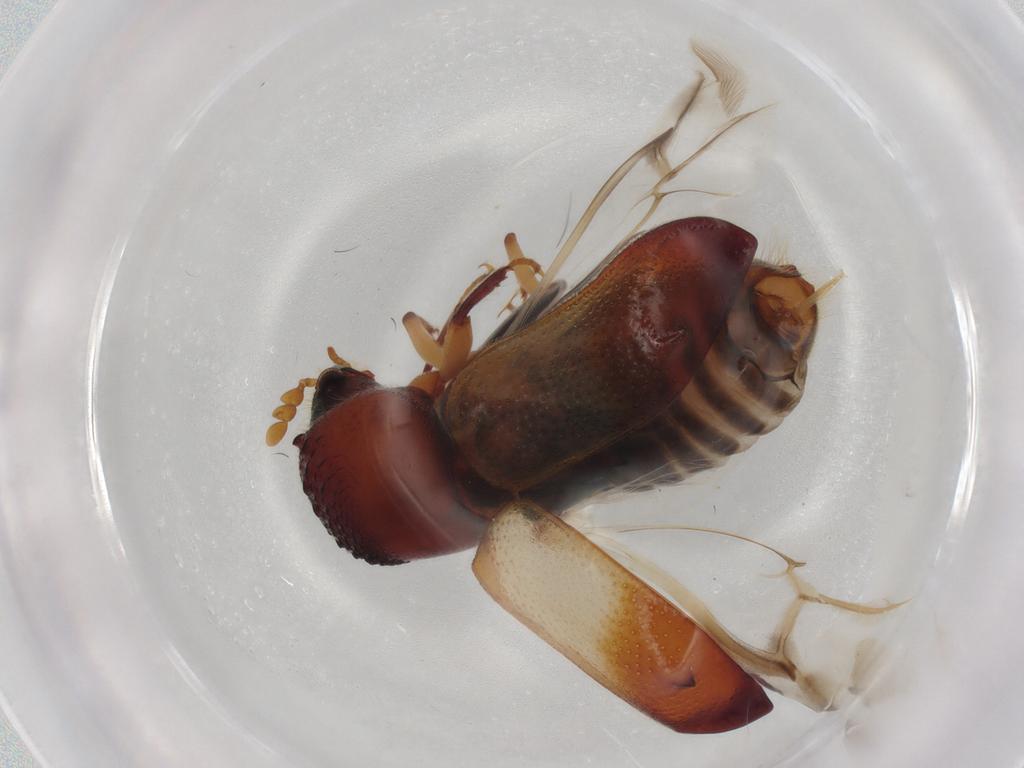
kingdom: Animalia
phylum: Arthropoda
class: Insecta
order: Coleoptera
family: Bostrichidae
